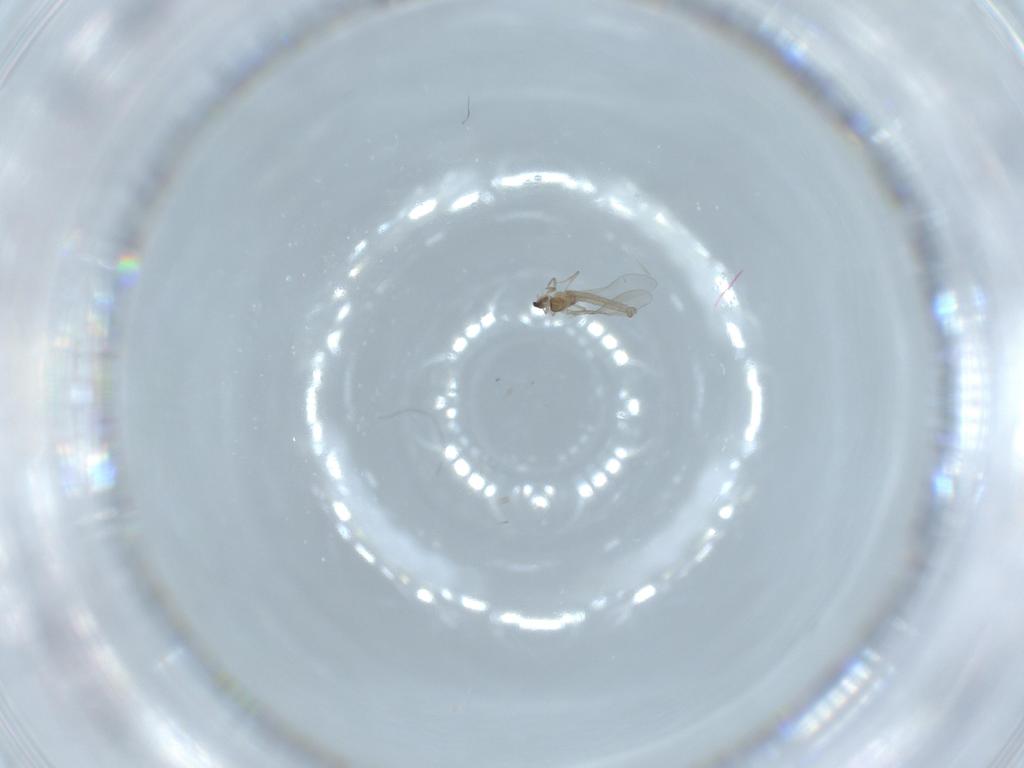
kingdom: Animalia
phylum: Arthropoda
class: Insecta
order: Diptera
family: Cecidomyiidae
